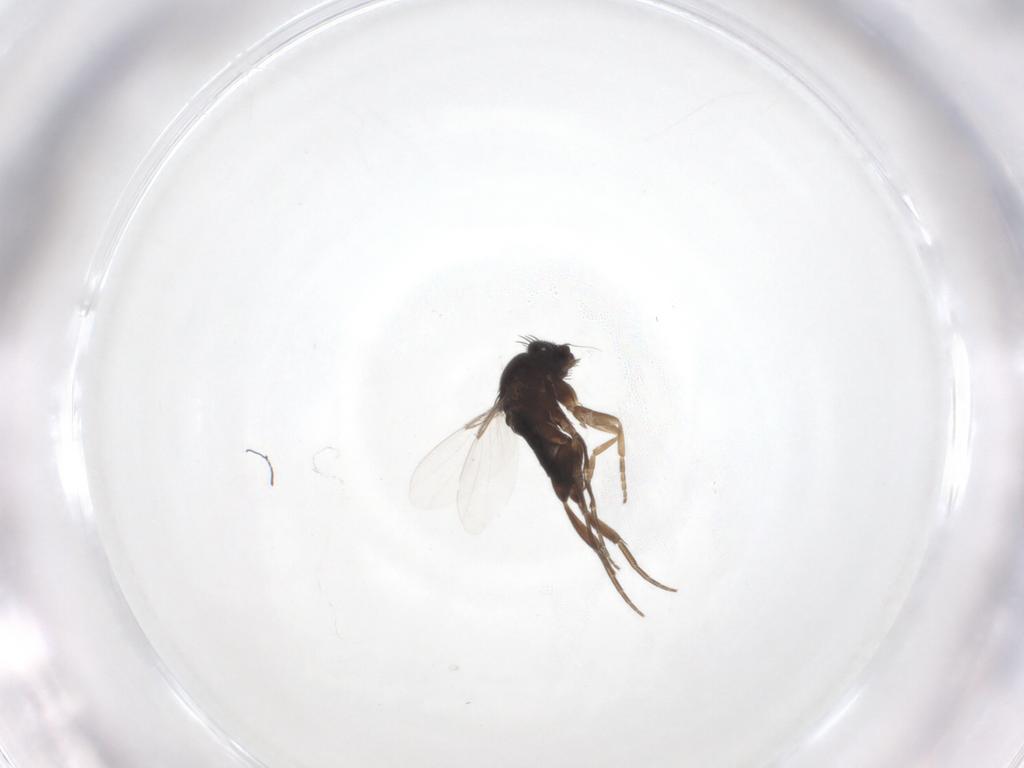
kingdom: Animalia
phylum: Arthropoda
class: Insecta
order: Diptera
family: Phoridae
